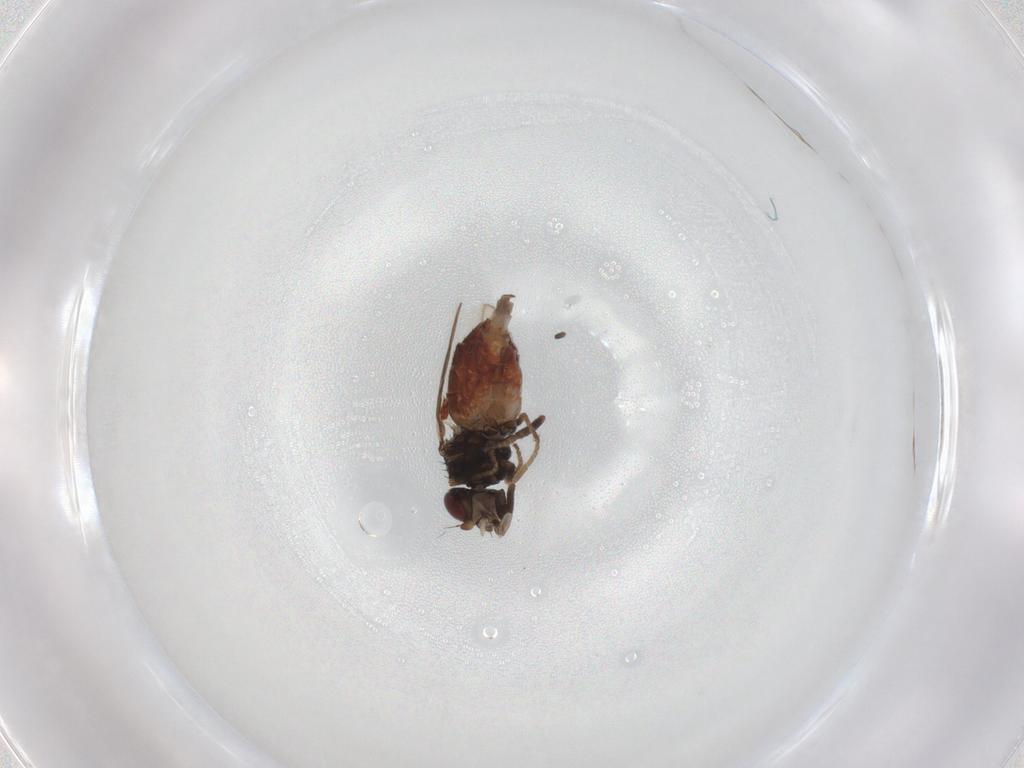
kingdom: Animalia
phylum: Arthropoda
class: Insecta
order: Diptera
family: Chloropidae
